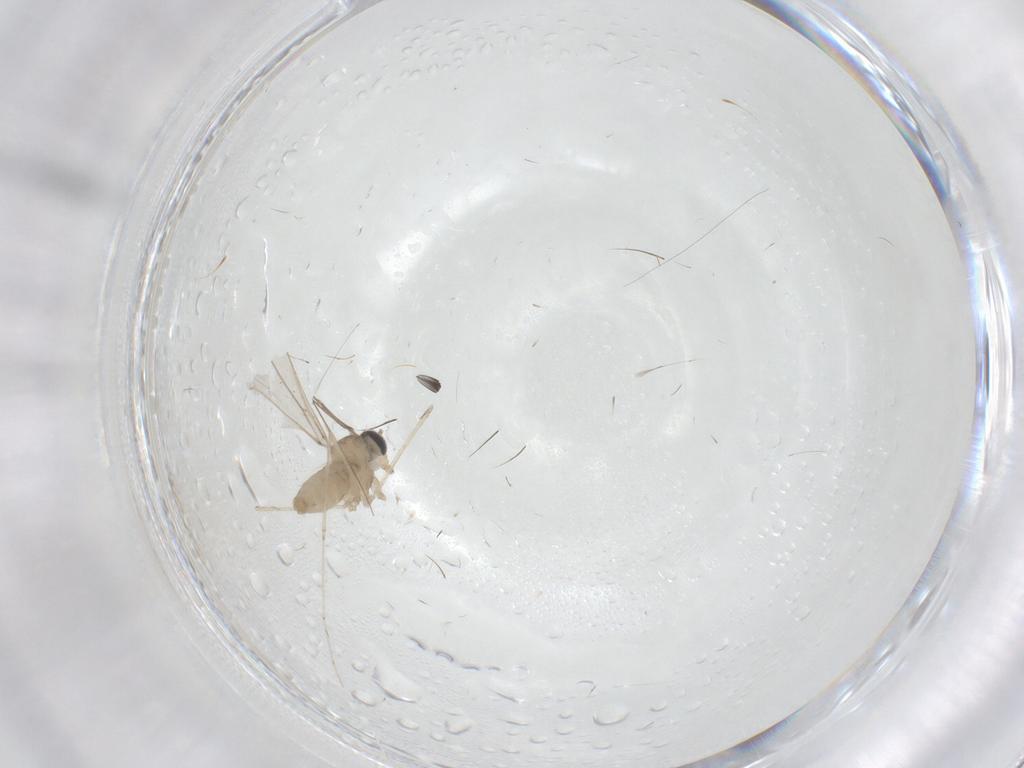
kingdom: Animalia
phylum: Arthropoda
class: Insecta
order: Diptera
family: Cecidomyiidae
